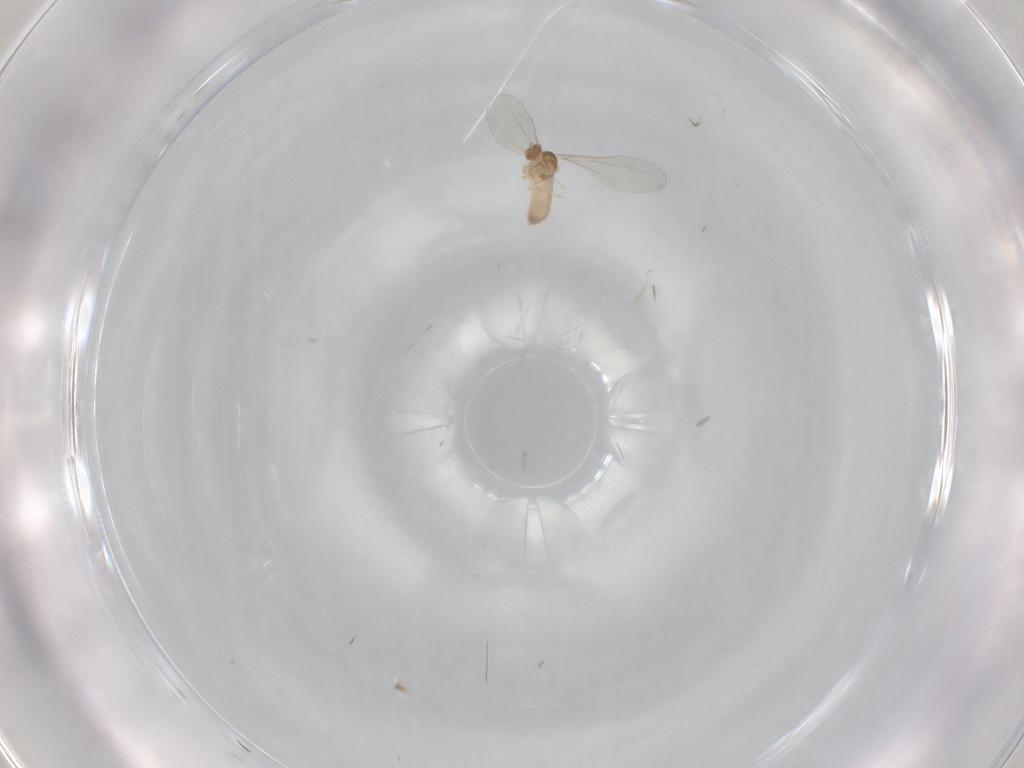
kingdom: Animalia
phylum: Arthropoda
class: Insecta
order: Diptera
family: Cecidomyiidae
